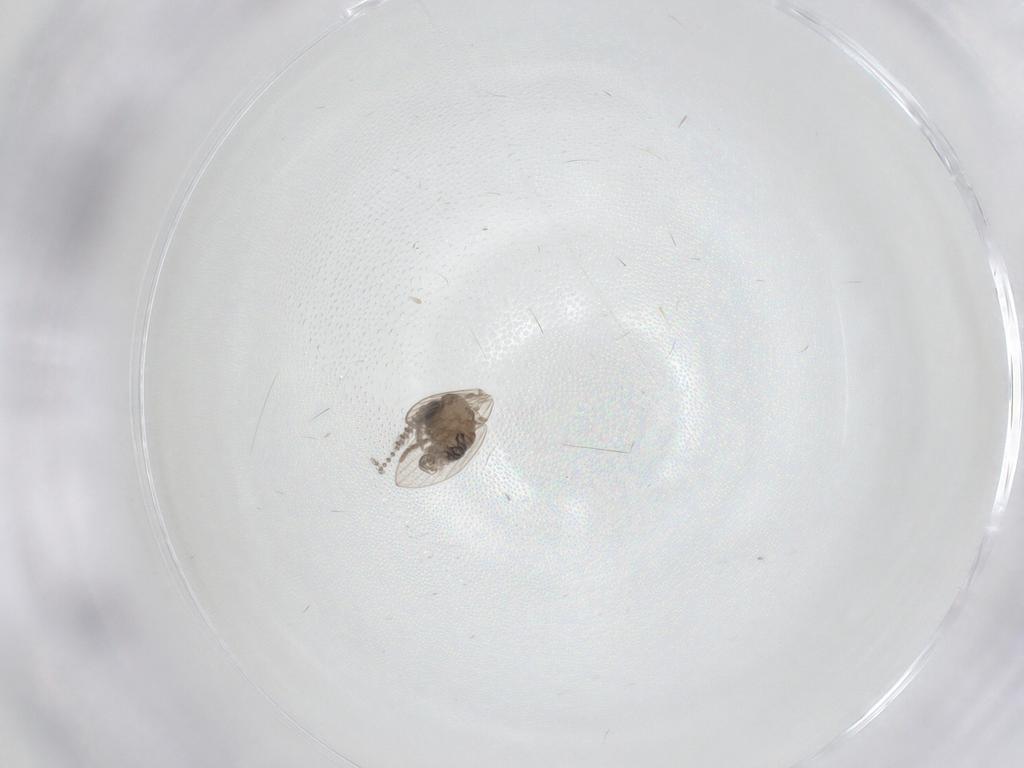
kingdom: Animalia
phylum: Arthropoda
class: Insecta
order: Diptera
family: Psychodidae
